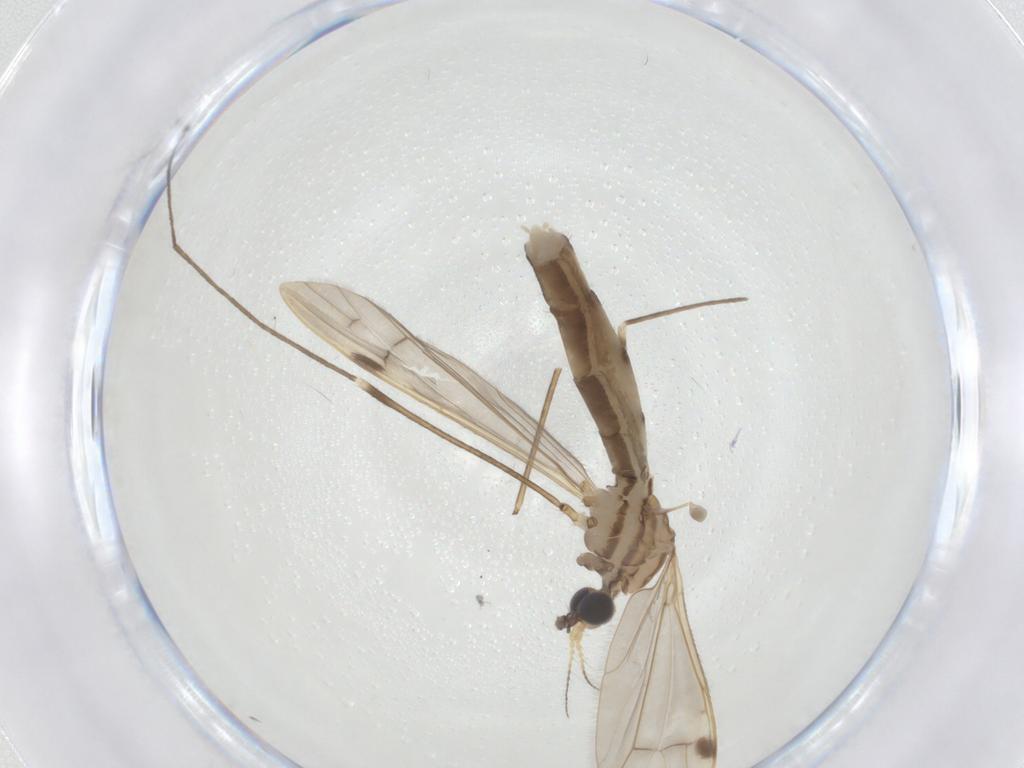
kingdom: Animalia
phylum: Arthropoda
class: Insecta
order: Diptera
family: Limoniidae
